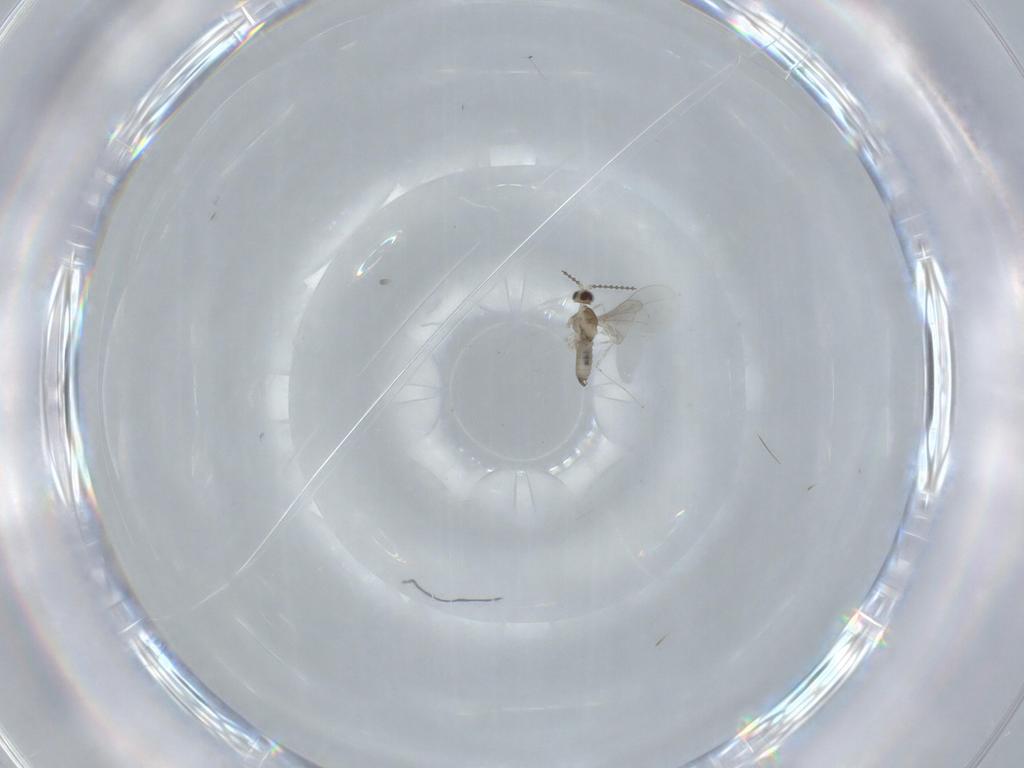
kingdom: Animalia
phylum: Arthropoda
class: Insecta
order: Diptera
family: Cecidomyiidae
